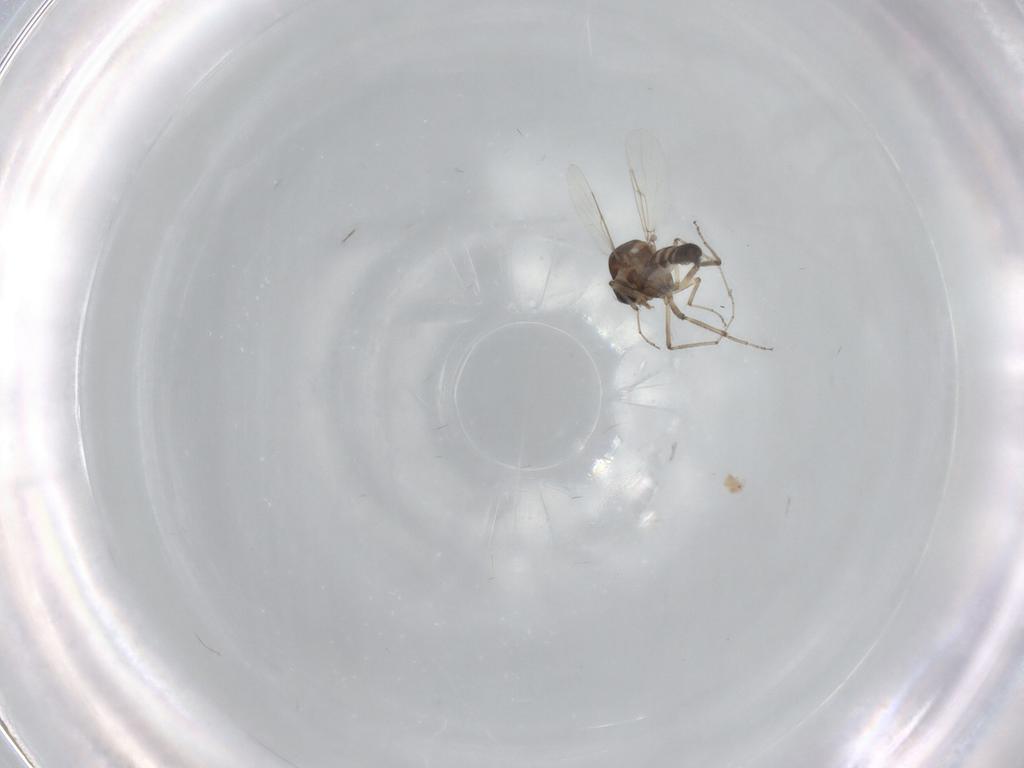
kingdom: Animalia
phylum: Arthropoda
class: Insecta
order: Diptera
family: Ceratopogonidae
